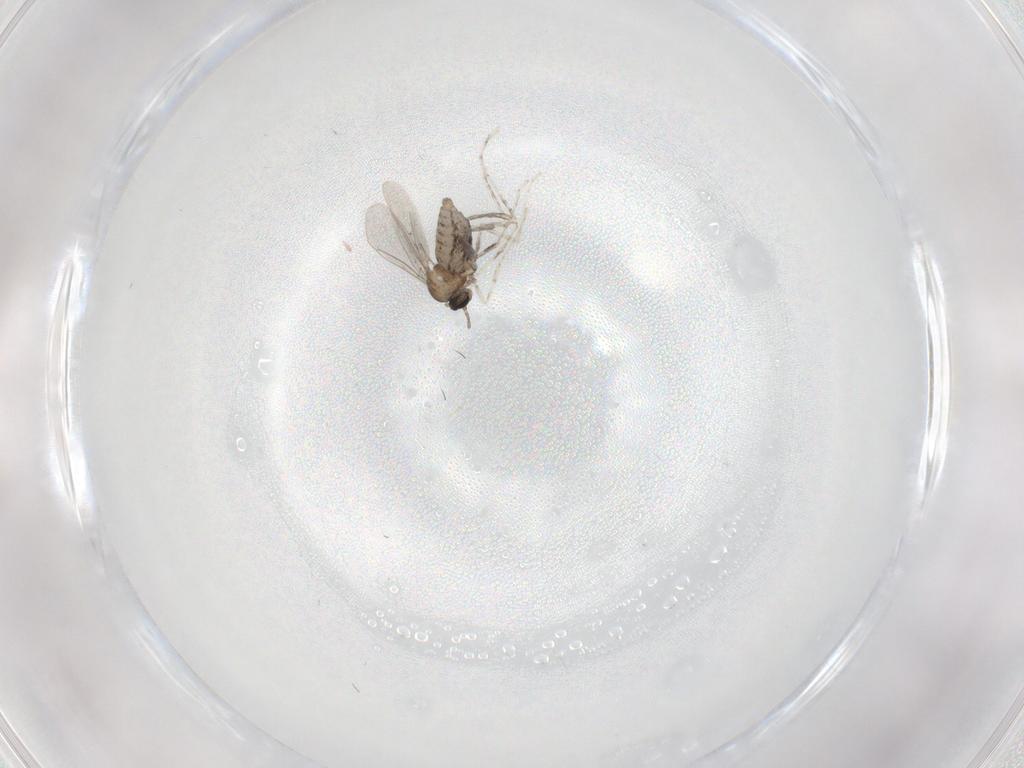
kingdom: Animalia
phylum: Arthropoda
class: Insecta
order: Diptera
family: Cecidomyiidae
